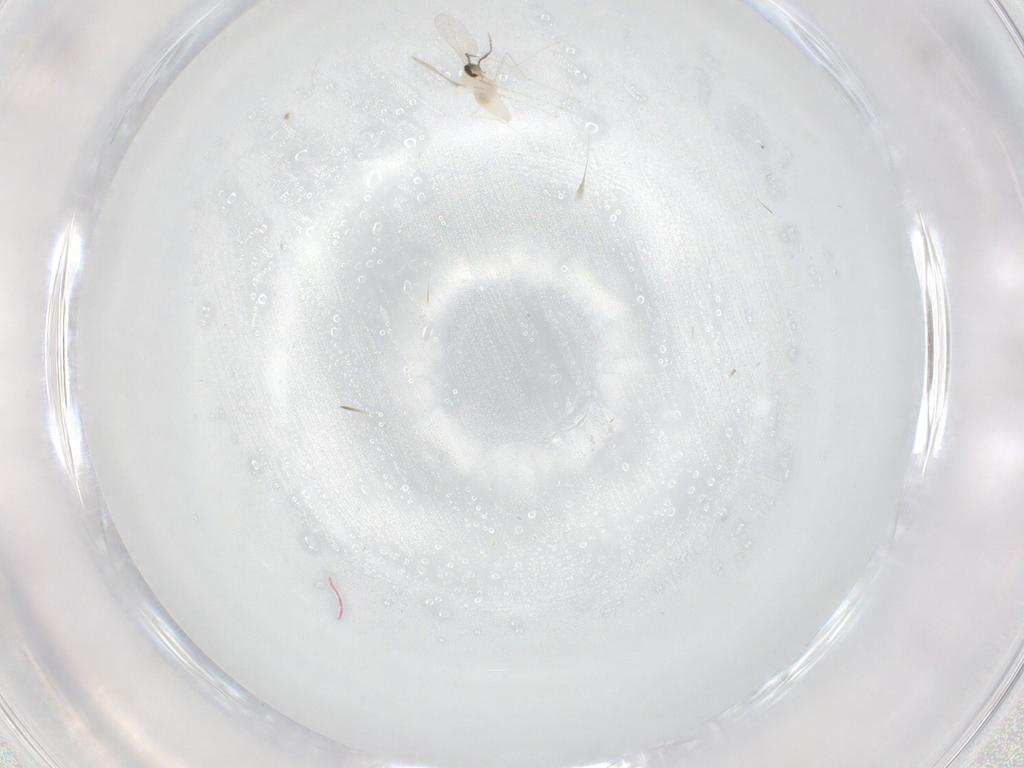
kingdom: Animalia
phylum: Arthropoda
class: Insecta
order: Diptera
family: Cecidomyiidae
